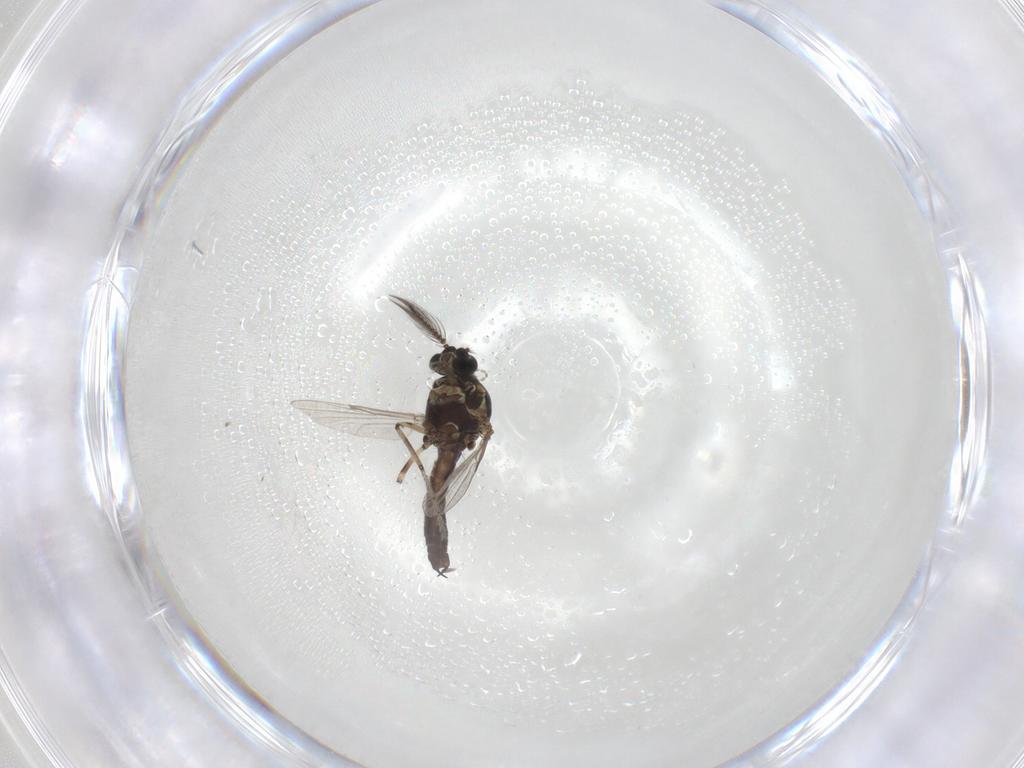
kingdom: Animalia
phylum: Arthropoda
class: Insecta
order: Diptera
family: Ceratopogonidae
